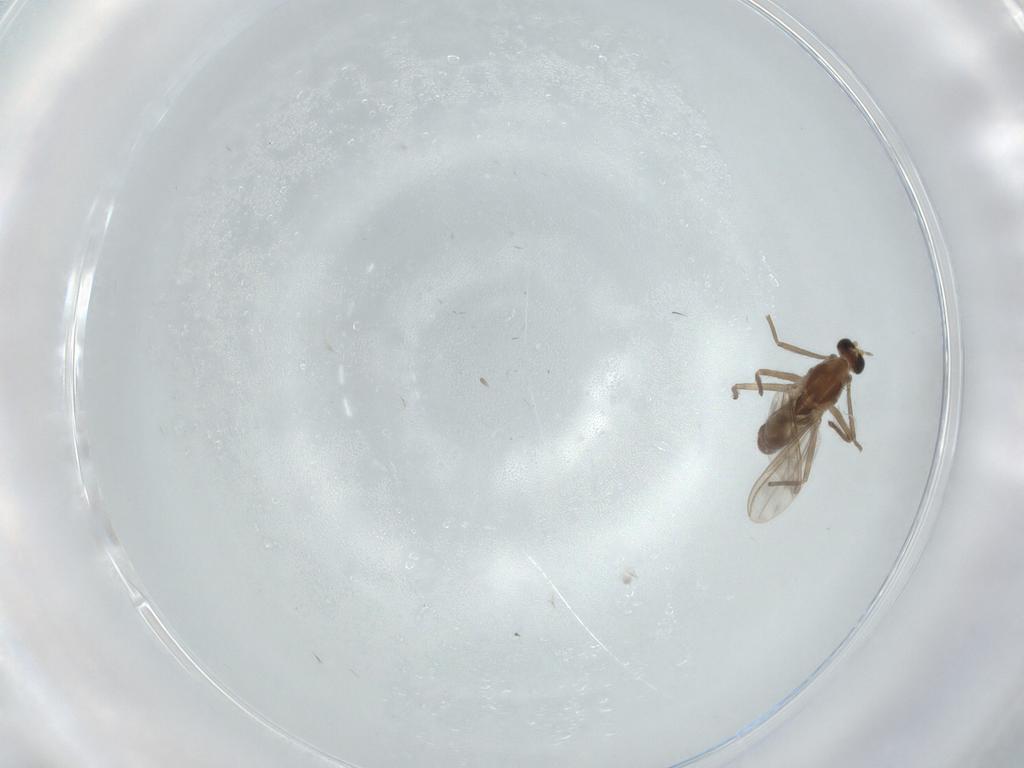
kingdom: Animalia
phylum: Arthropoda
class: Insecta
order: Diptera
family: Chironomidae
